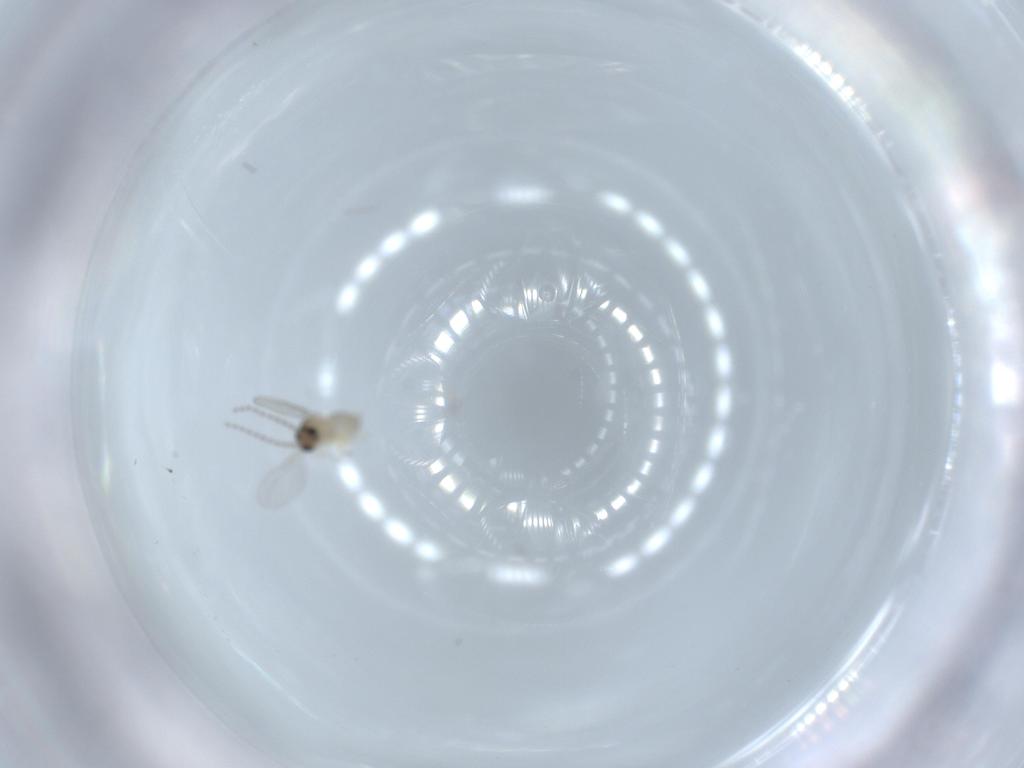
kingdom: Animalia
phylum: Arthropoda
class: Insecta
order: Diptera
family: Cecidomyiidae
